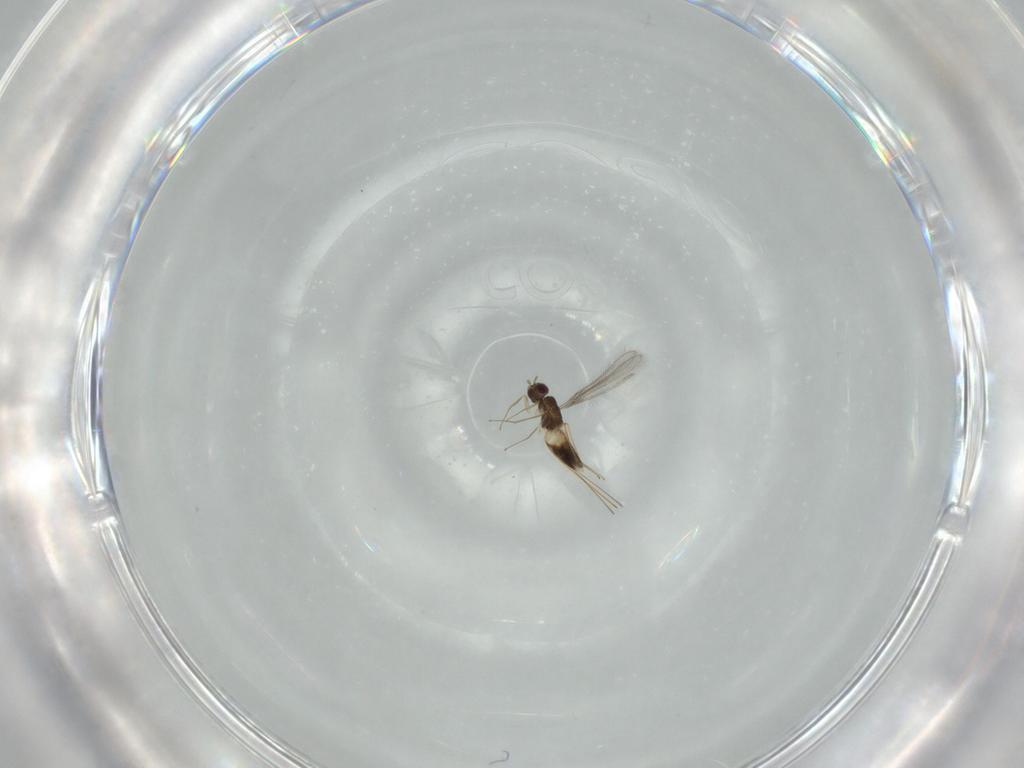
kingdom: Animalia
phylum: Arthropoda
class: Insecta
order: Hymenoptera
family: Mymaridae
